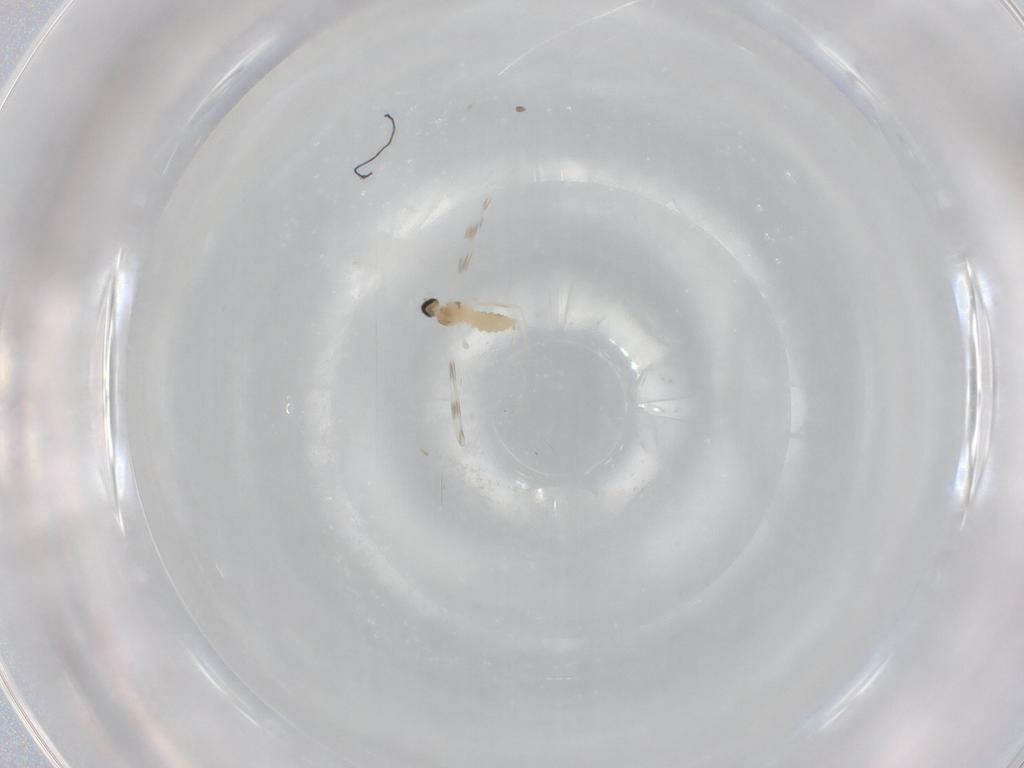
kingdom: Animalia
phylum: Arthropoda
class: Insecta
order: Diptera
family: Cecidomyiidae
